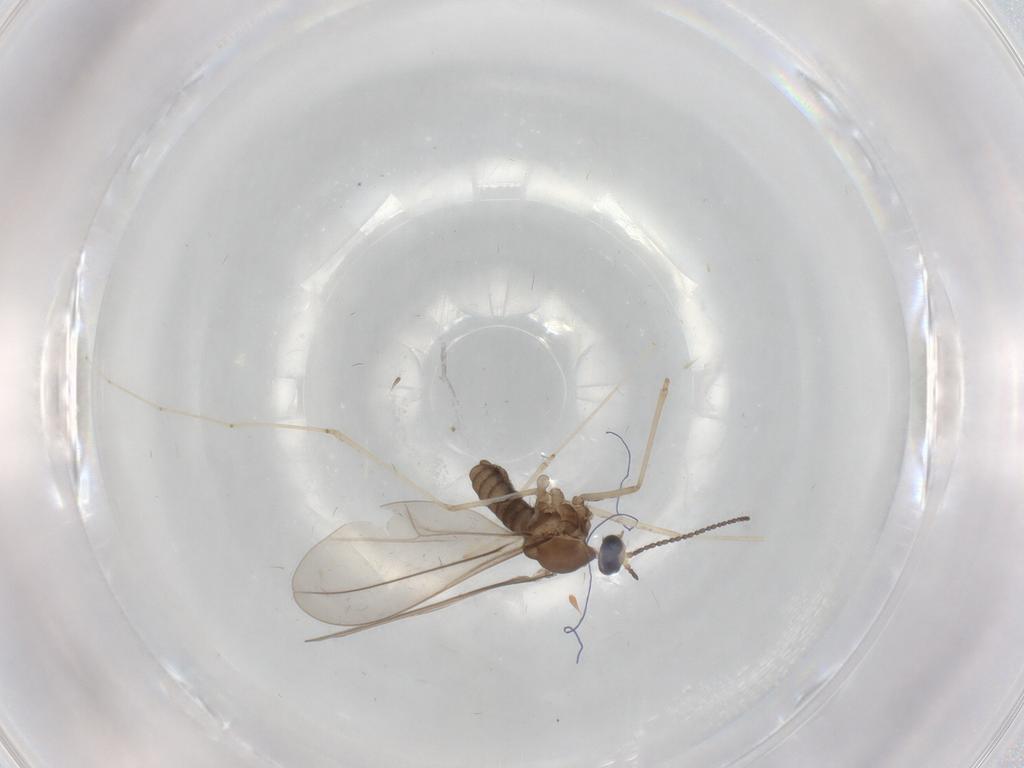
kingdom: Animalia
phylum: Arthropoda
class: Insecta
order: Diptera
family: Cecidomyiidae
